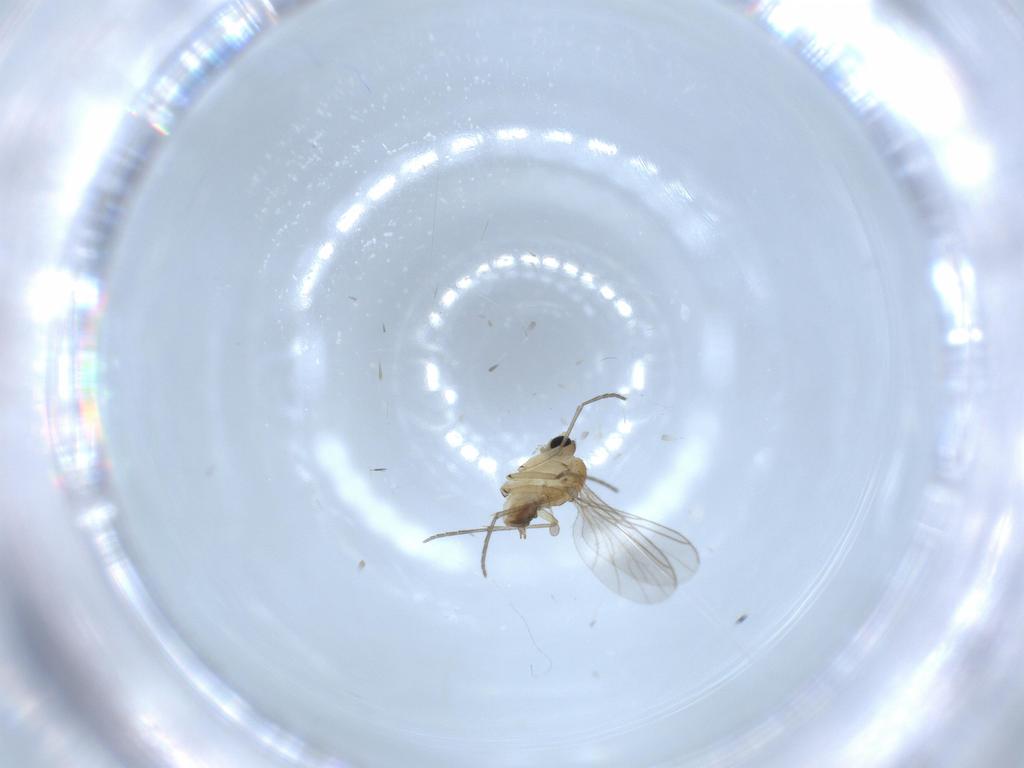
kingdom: Animalia
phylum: Arthropoda
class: Insecta
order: Diptera
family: Sciaridae
